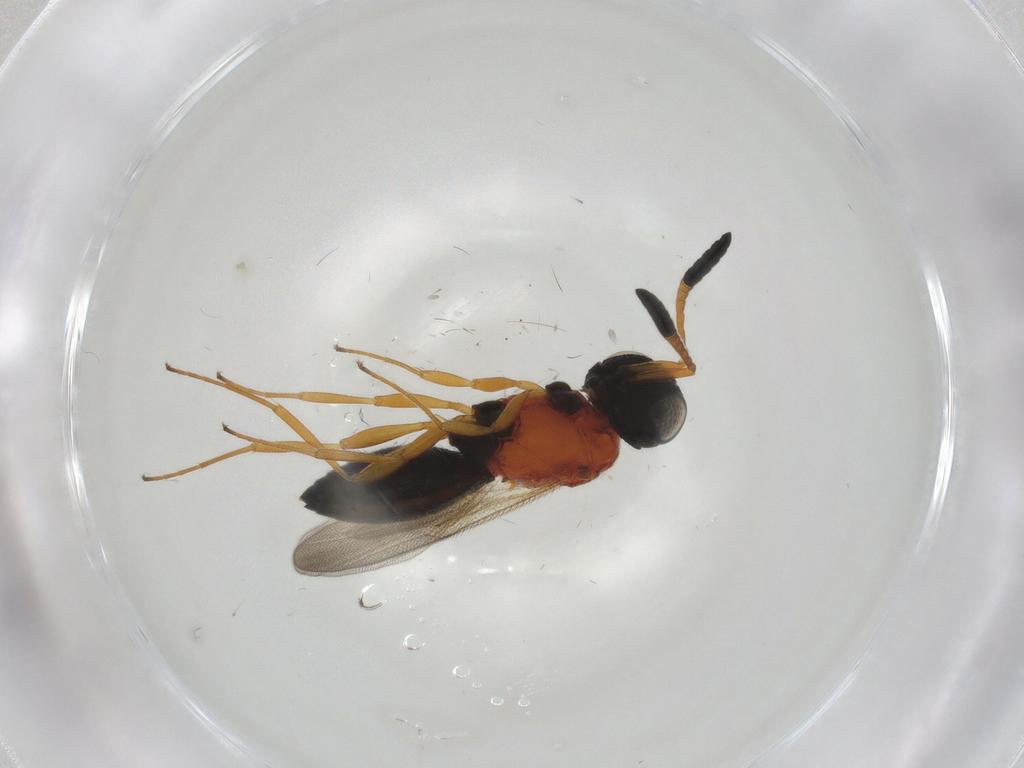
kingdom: Animalia
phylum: Arthropoda
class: Insecta
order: Hymenoptera
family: Scelionidae
